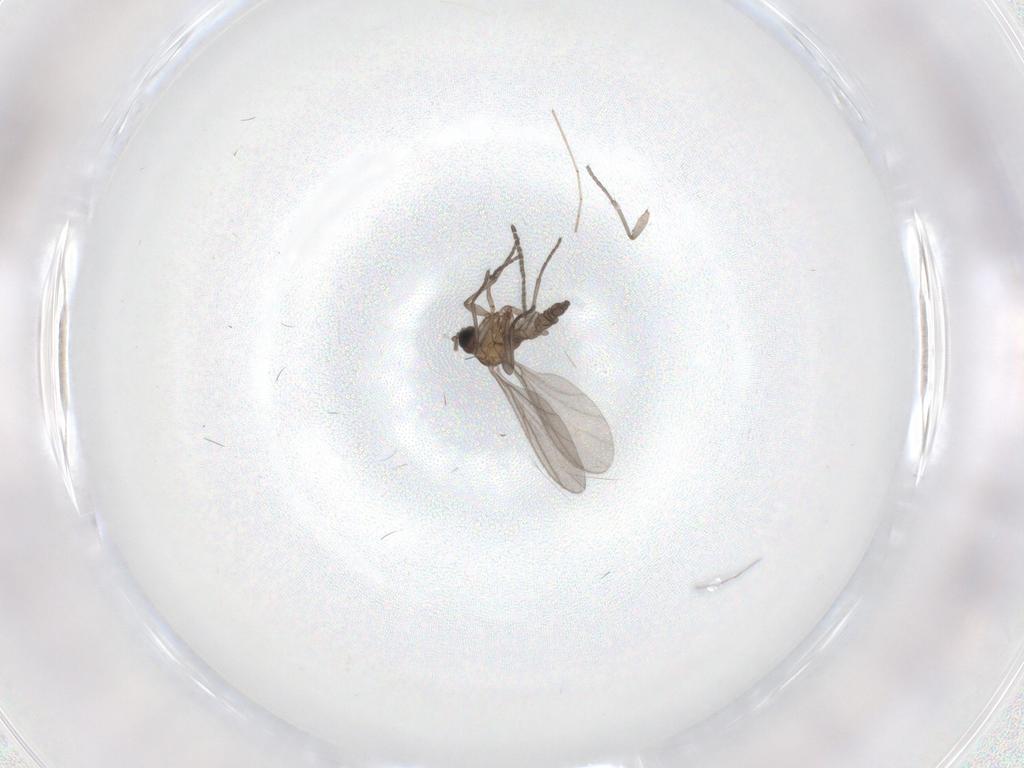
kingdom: Animalia
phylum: Arthropoda
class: Insecta
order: Diptera
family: Sciaridae
